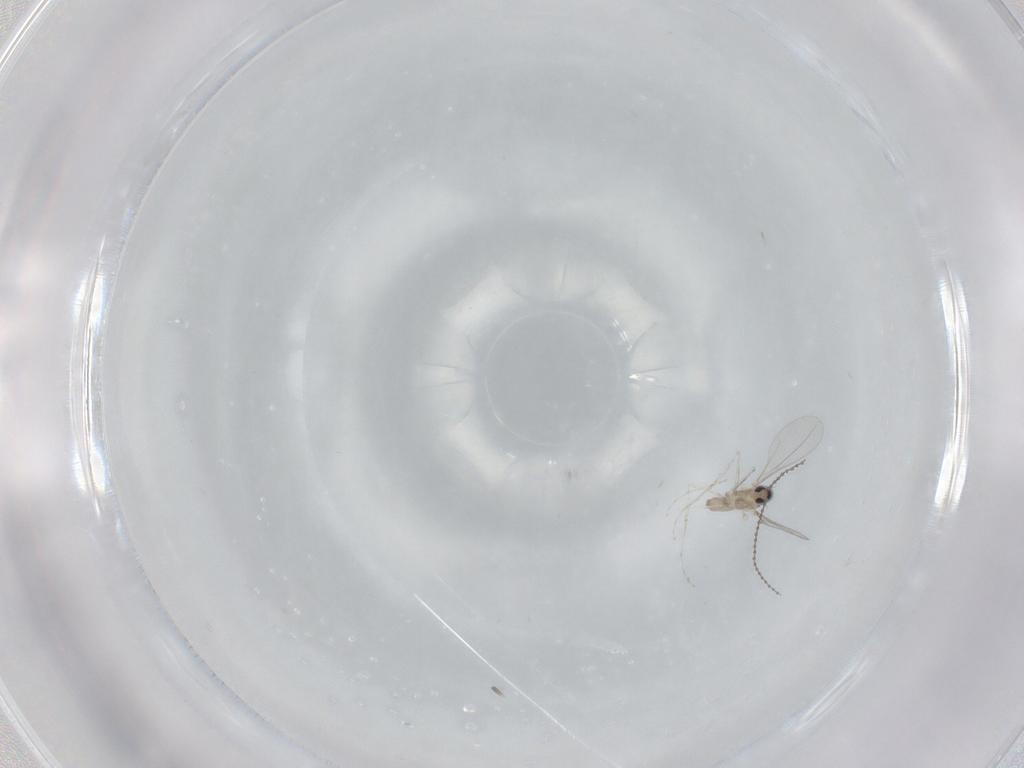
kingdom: Animalia
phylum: Arthropoda
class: Insecta
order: Diptera
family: Cecidomyiidae
